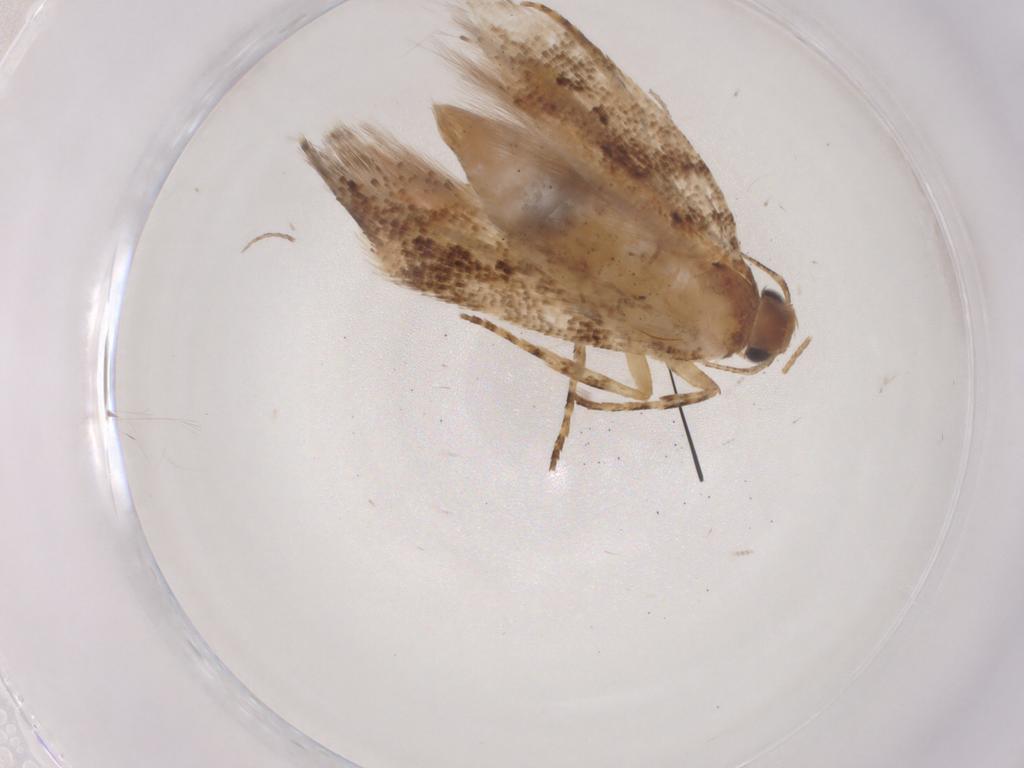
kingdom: Animalia
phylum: Arthropoda
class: Insecta
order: Lepidoptera
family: Gelechiidae
